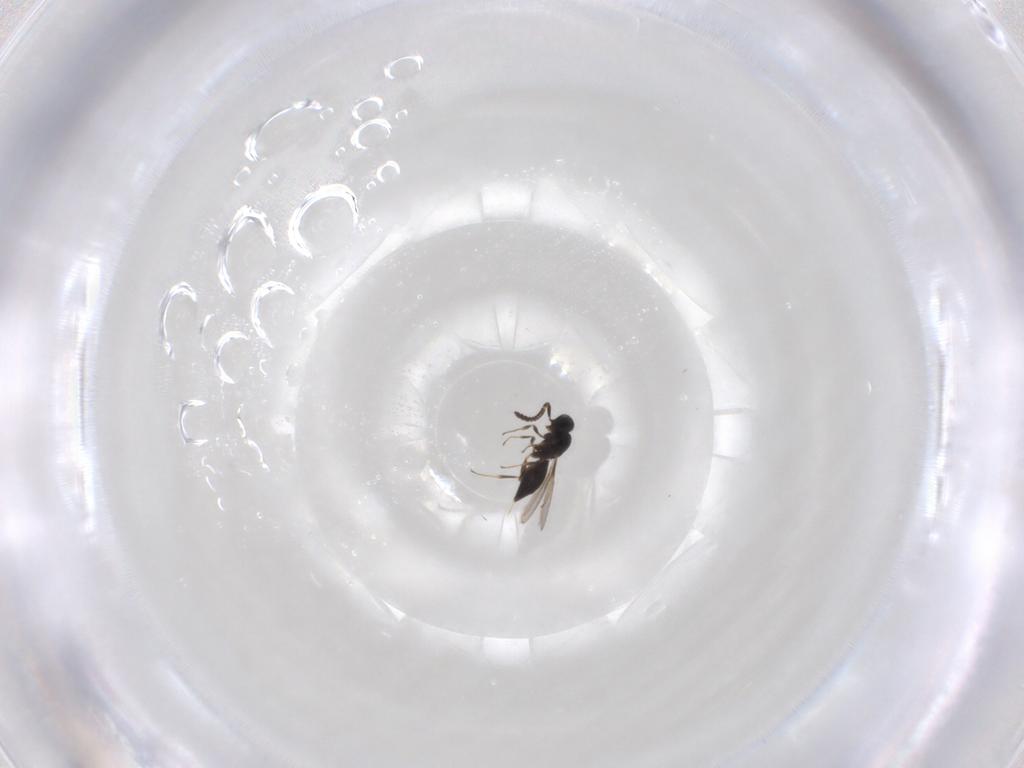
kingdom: Animalia
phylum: Arthropoda
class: Insecta
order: Hymenoptera
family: Scelionidae
